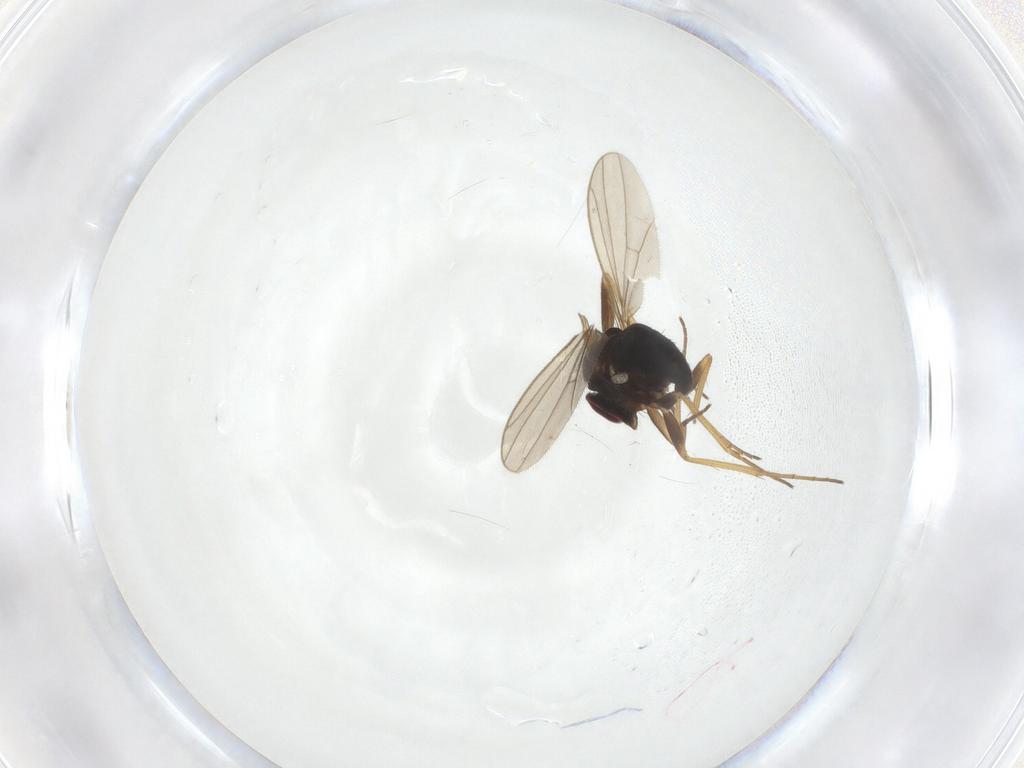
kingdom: Animalia
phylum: Arthropoda
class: Insecta
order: Diptera
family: Dolichopodidae
